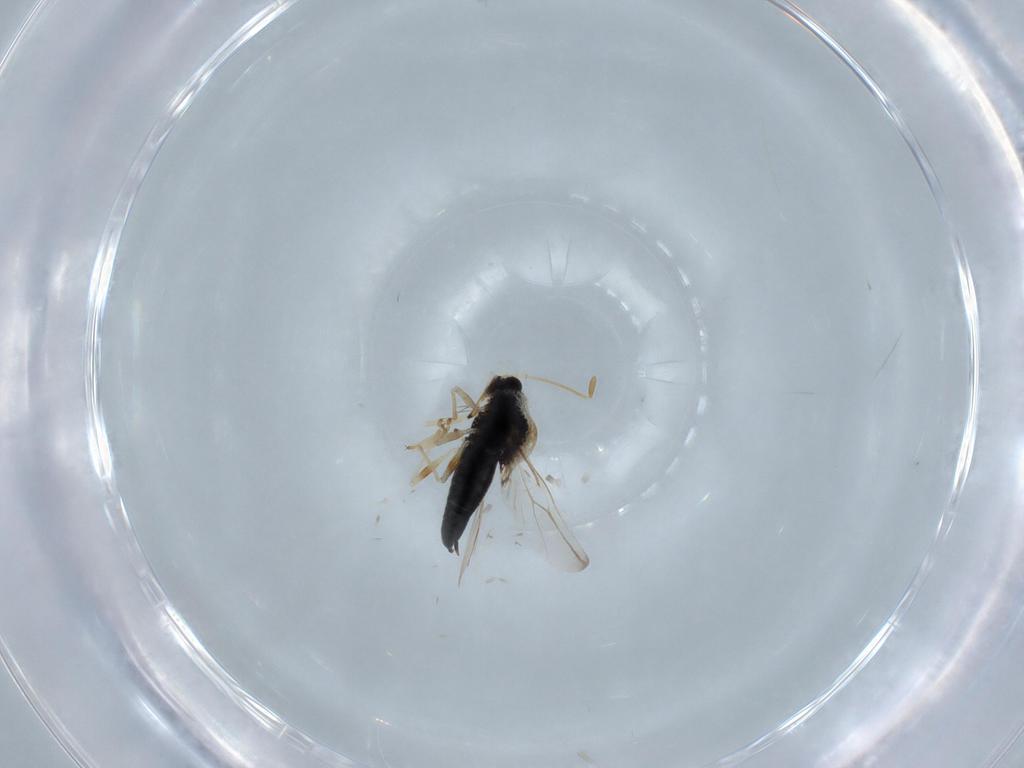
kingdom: Animalia
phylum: Arthropoda
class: Insecta
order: Hemiptera
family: Tingidae
